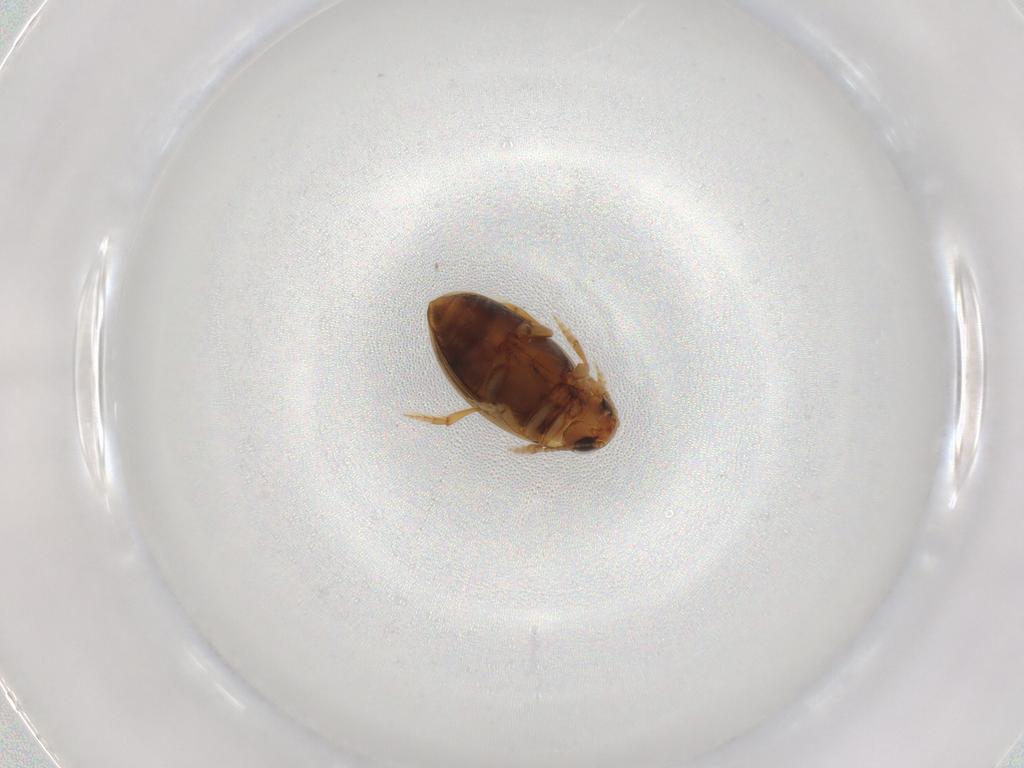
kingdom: Animalia
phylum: Arthropoda
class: Insecta
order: Coleoptera
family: Hydrophilidae
